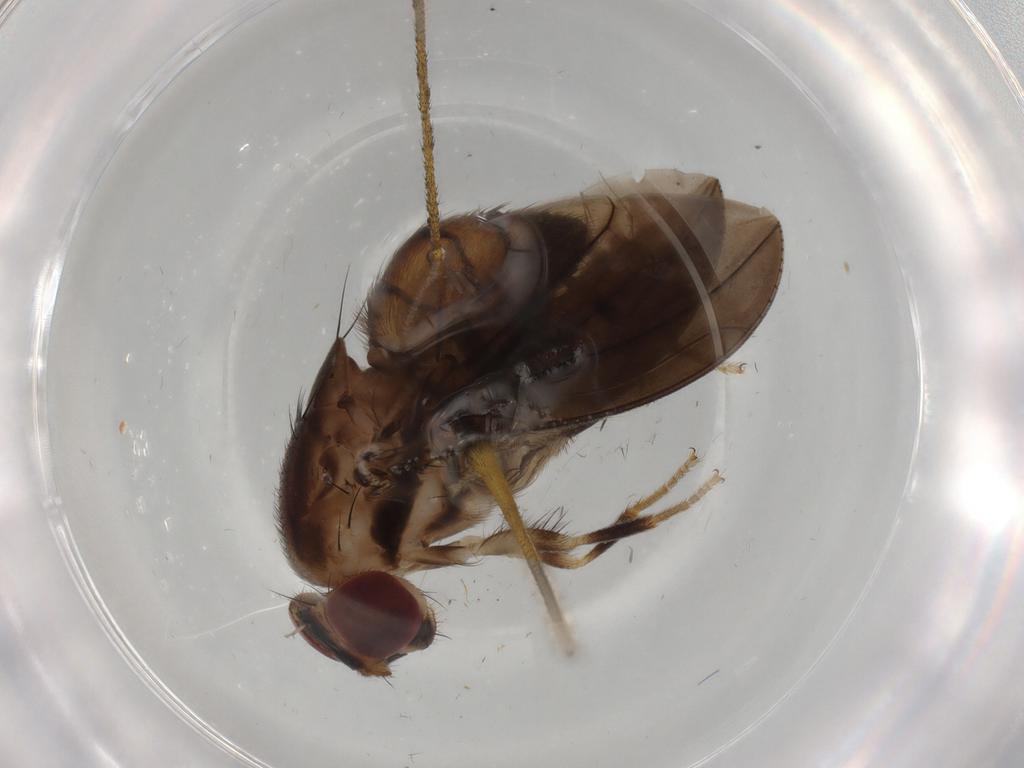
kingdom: Animalia
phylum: Arthropoda
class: Insecta
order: Diptera
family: Limoniidae
